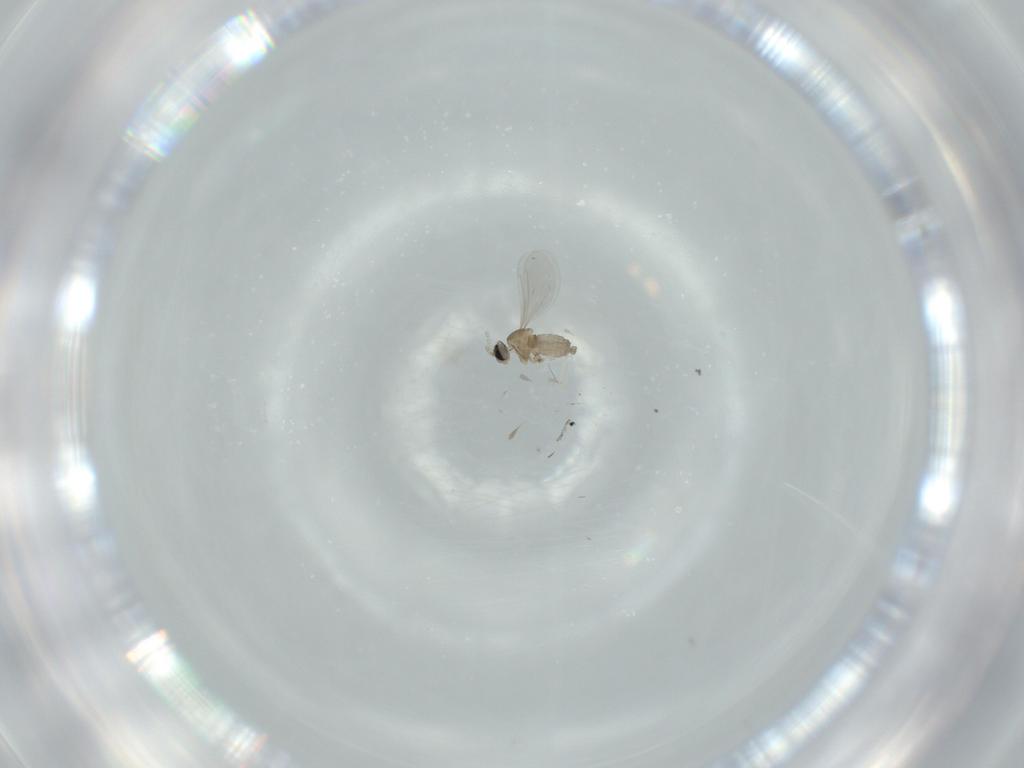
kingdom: Animalia
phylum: Arthropoda
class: Insecta
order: Diptera
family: Cecidomyiidae
